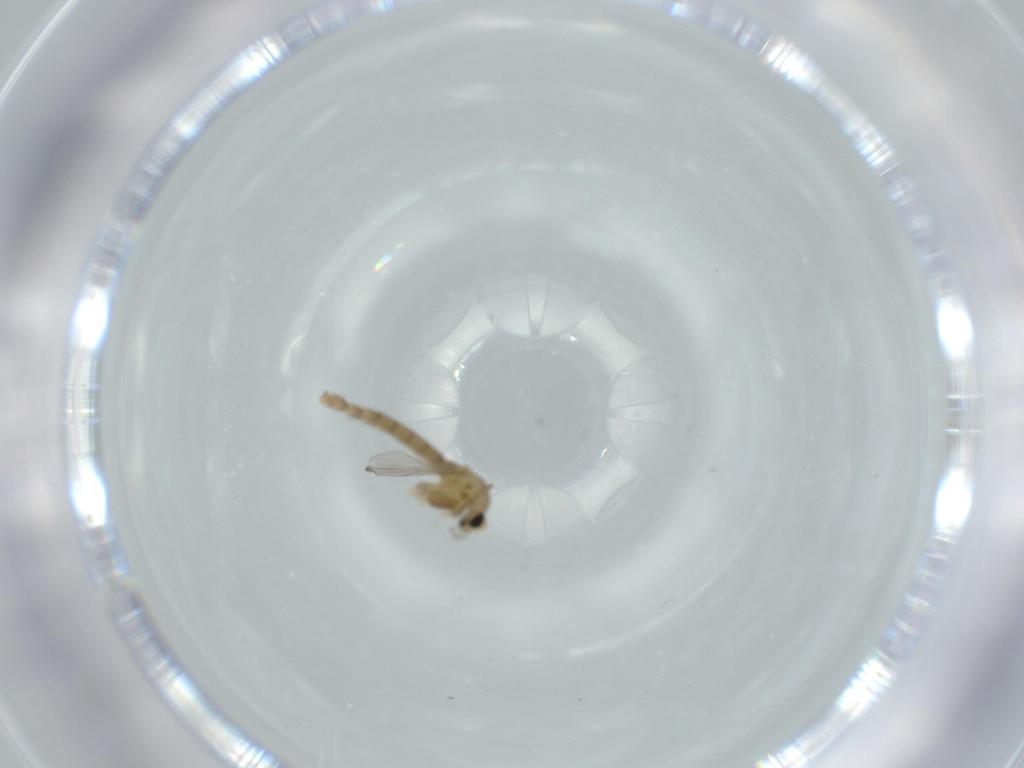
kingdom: Animalia
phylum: Arthropoda
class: Insecta
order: Diptera
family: Chironomidae
